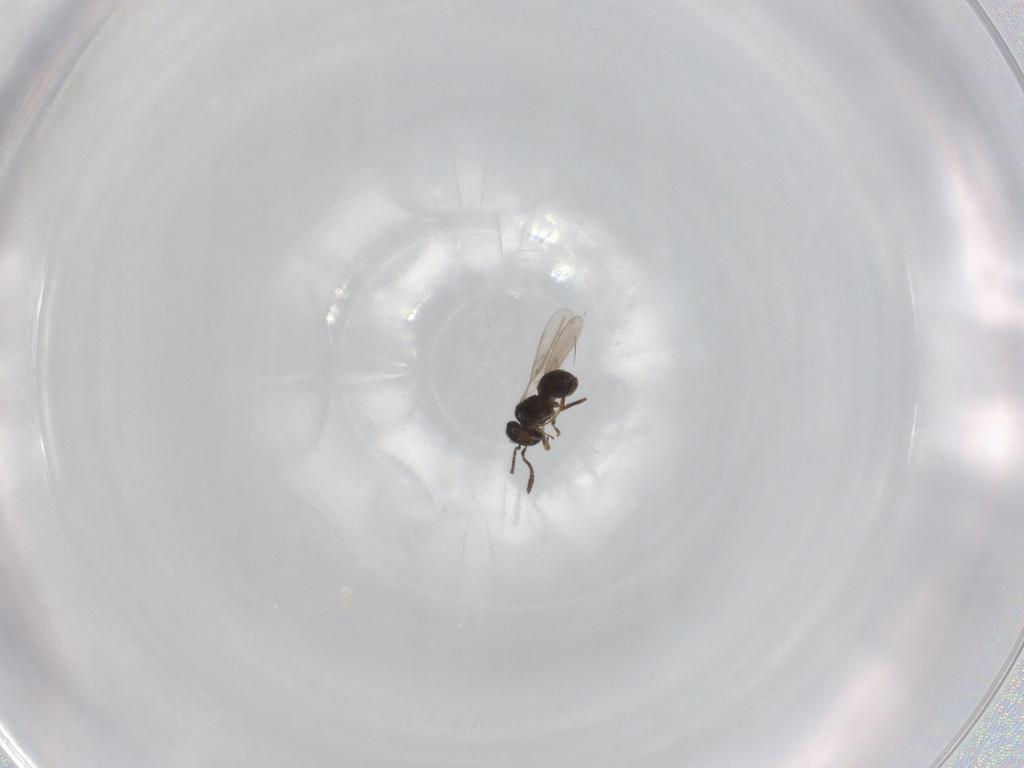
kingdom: Animalia
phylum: Arthropoda
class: Insecta
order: Hymenoptera
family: Scelionidae
